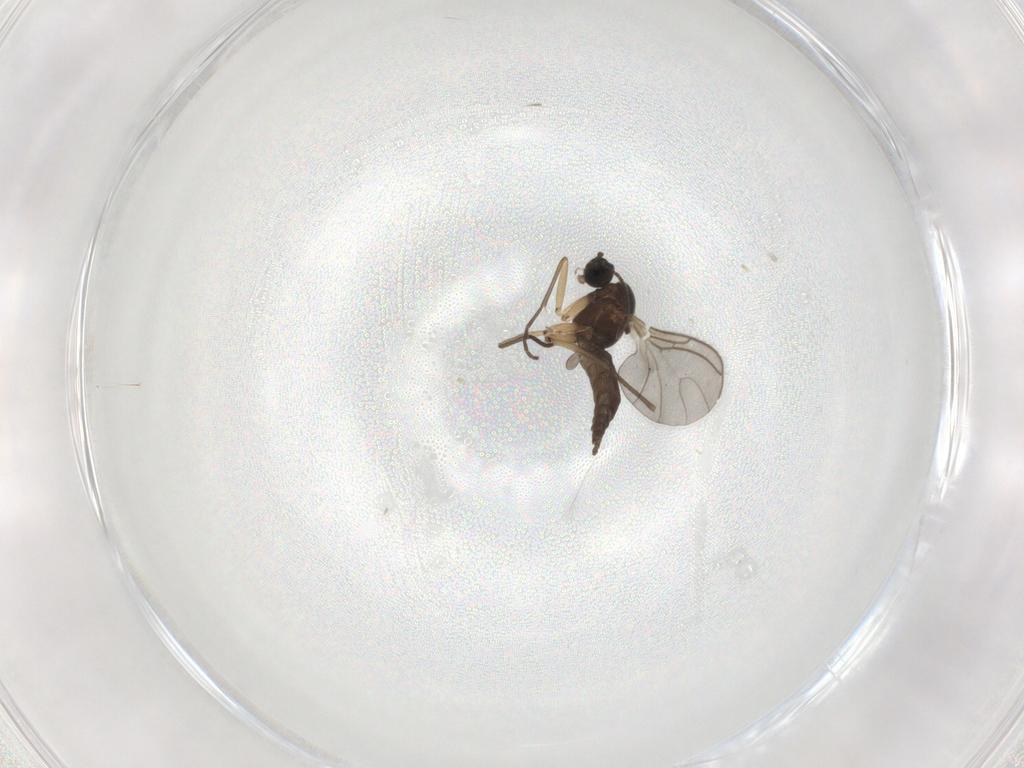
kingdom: Animalia
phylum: Arthropoda
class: Insecta
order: Diptera
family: Sciaridae
